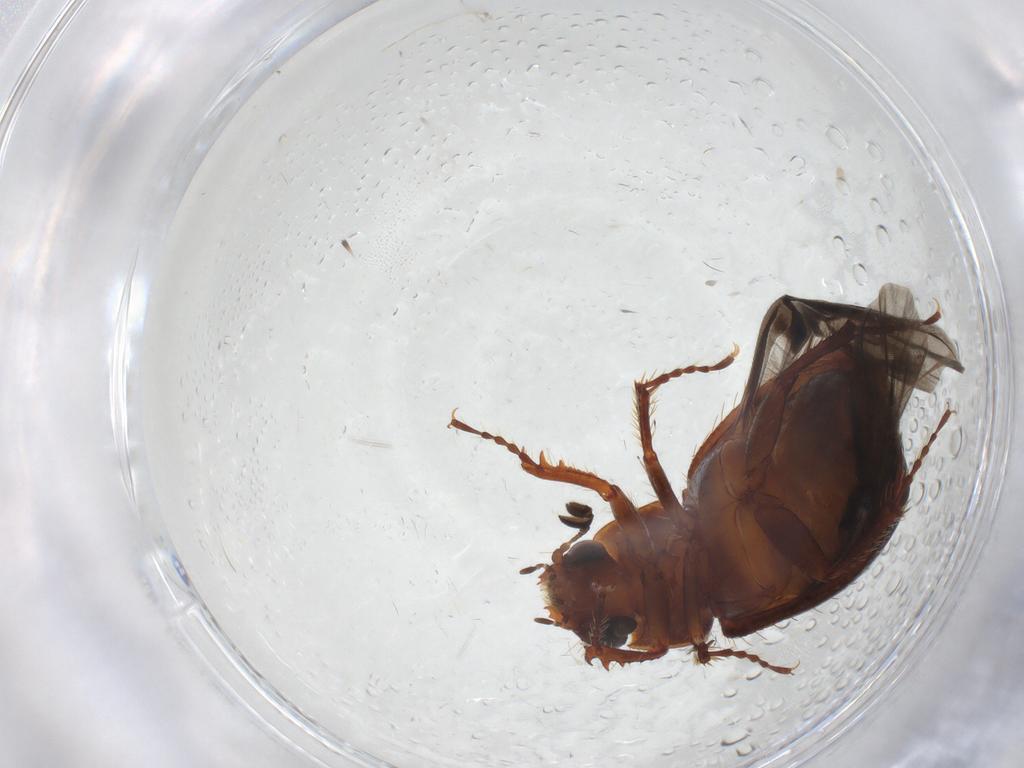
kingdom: Animalia
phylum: Arthropoda
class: Insecta
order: Coleoptera
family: Hybosoridae
